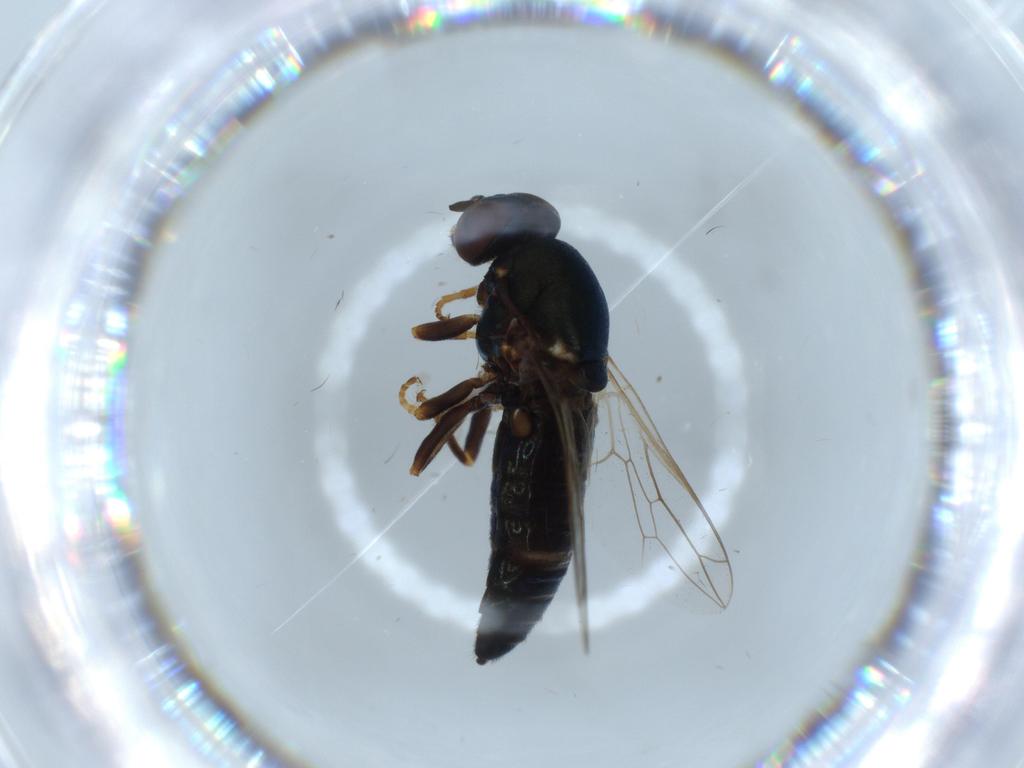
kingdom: Animalia
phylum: Arthropoda
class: Insecta
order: Diptera
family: Scenopinidae
